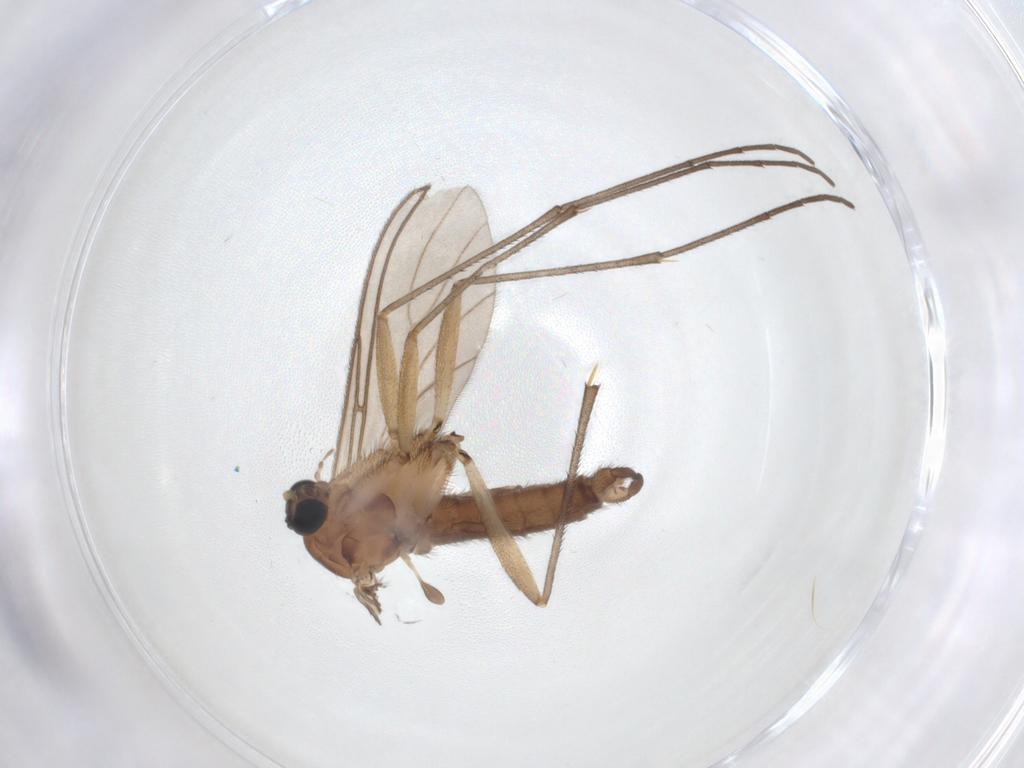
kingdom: Animalia
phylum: Arthropoda
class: Insecta
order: Diptera
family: Sciaridae
